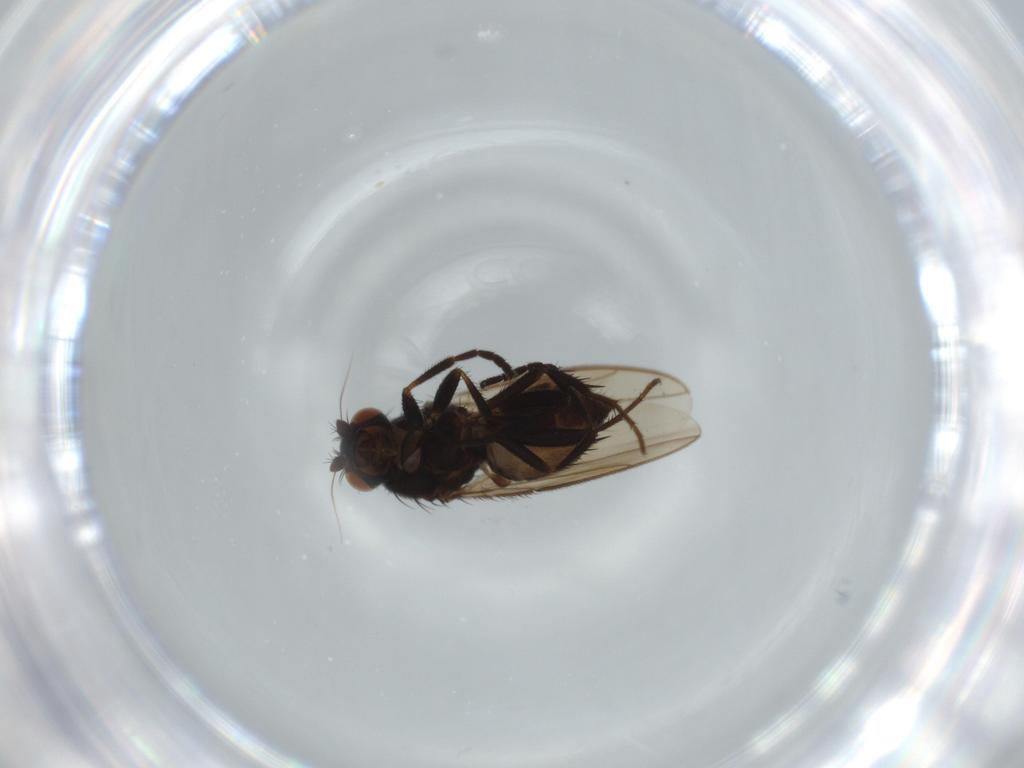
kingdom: Animalia
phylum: Arthropoda
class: Insecta
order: Diptera
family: Sphaeroceridae
